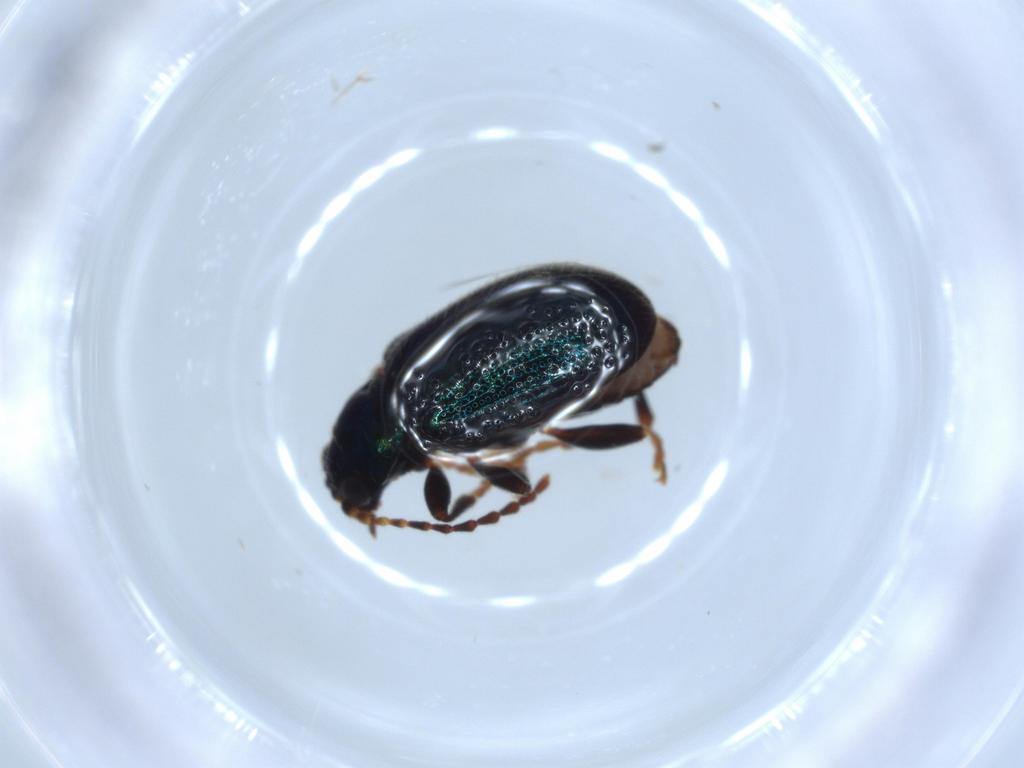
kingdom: Animalia
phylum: Arthropoda
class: Insecta
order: Coleoptera
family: Chrysomelidae
